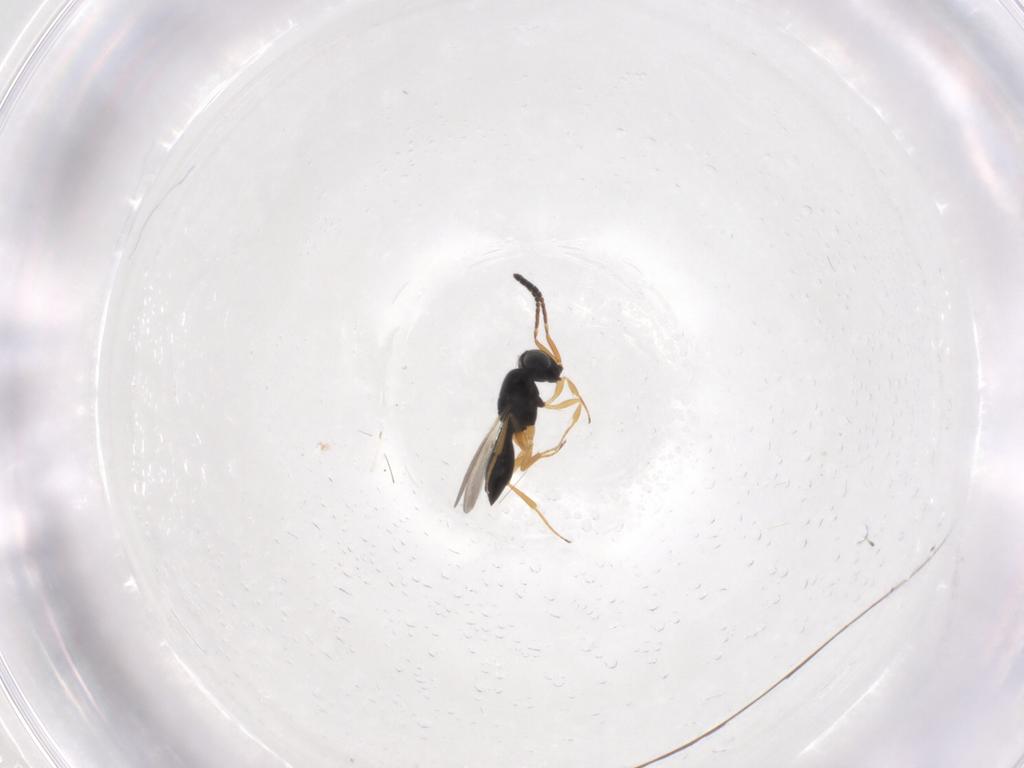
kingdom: Animalia
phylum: Arthropoda
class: Insecta
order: Hymenoptera
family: Scelionidae
